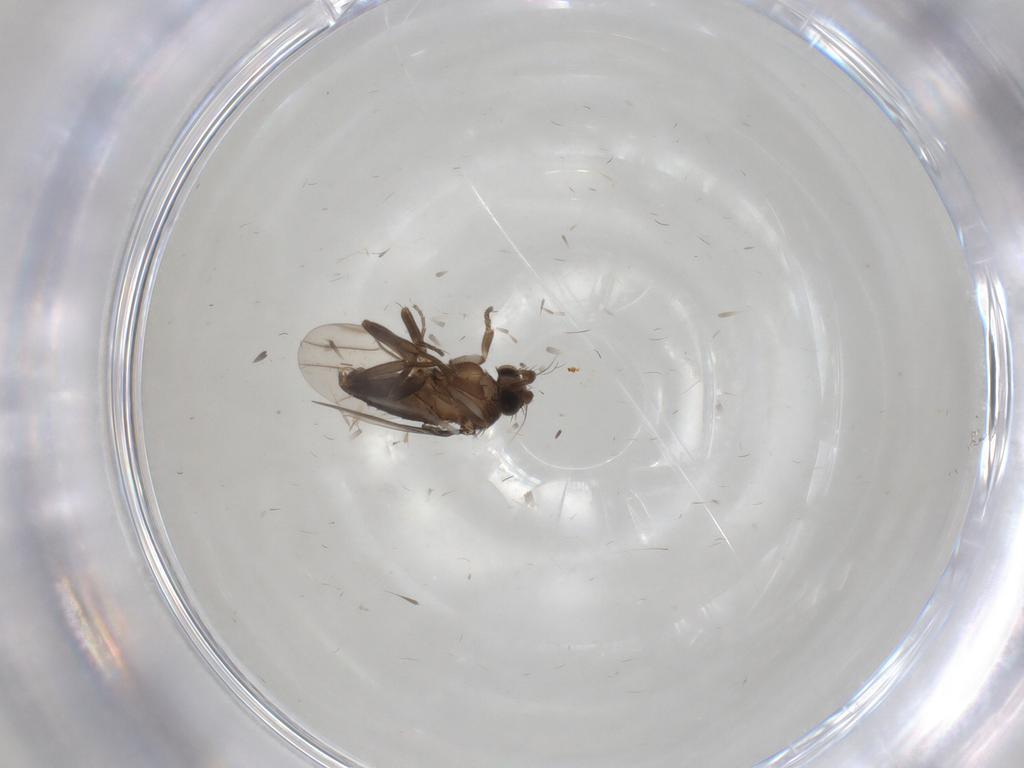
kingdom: Animalia
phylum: Arthropoda
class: Insecta
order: Diptera
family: Phoridae
